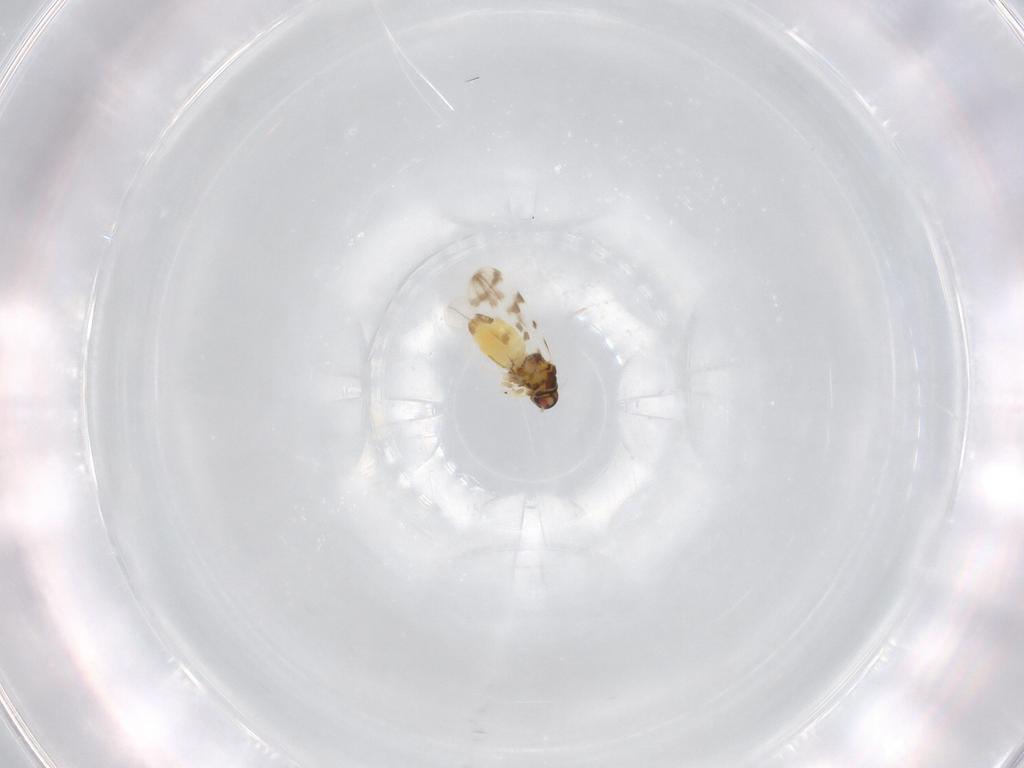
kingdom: Animalia
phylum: Arthropoda
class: Insecta
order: Hemiptera
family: Aleyrodidae
